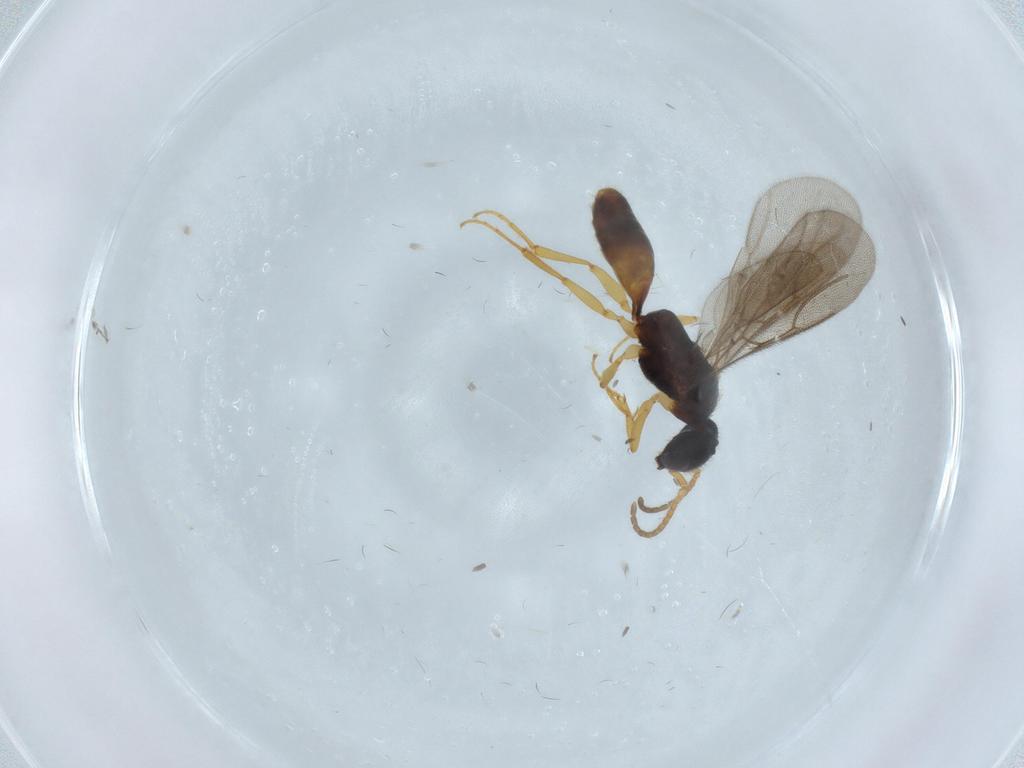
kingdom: Animalia
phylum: Arthropoda
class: Insecta
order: Hymenoptera
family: Bethylidae
